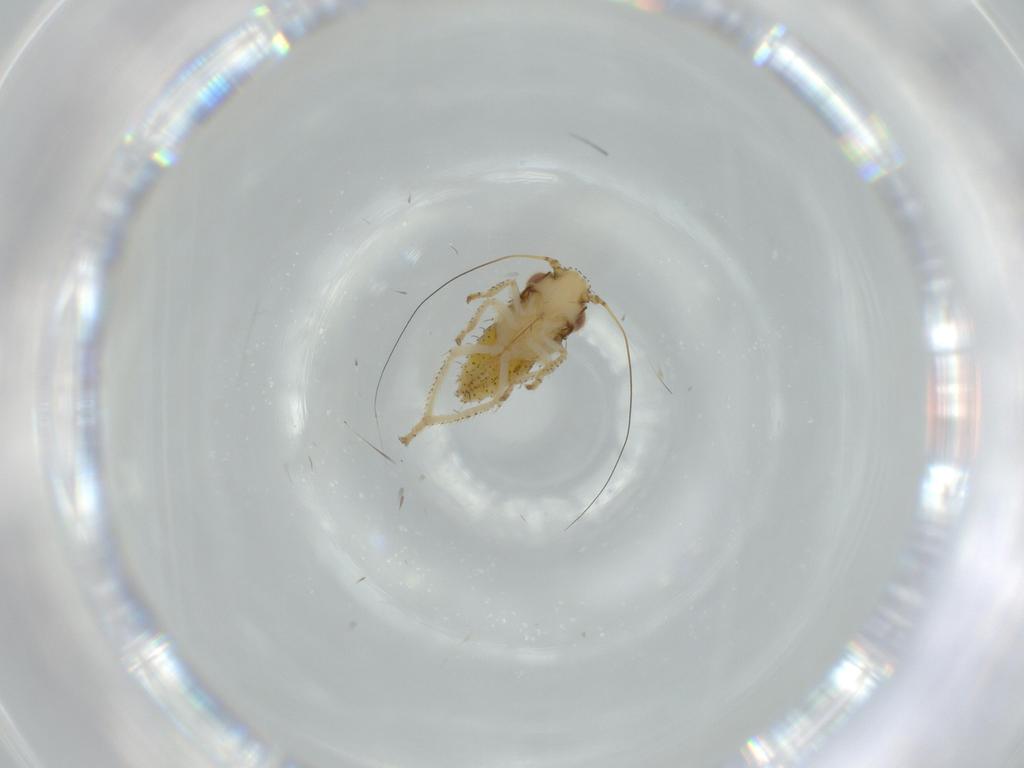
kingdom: Animalia
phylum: Arthropoda
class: Insecta
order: Hemiptera
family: Cicadellidae
